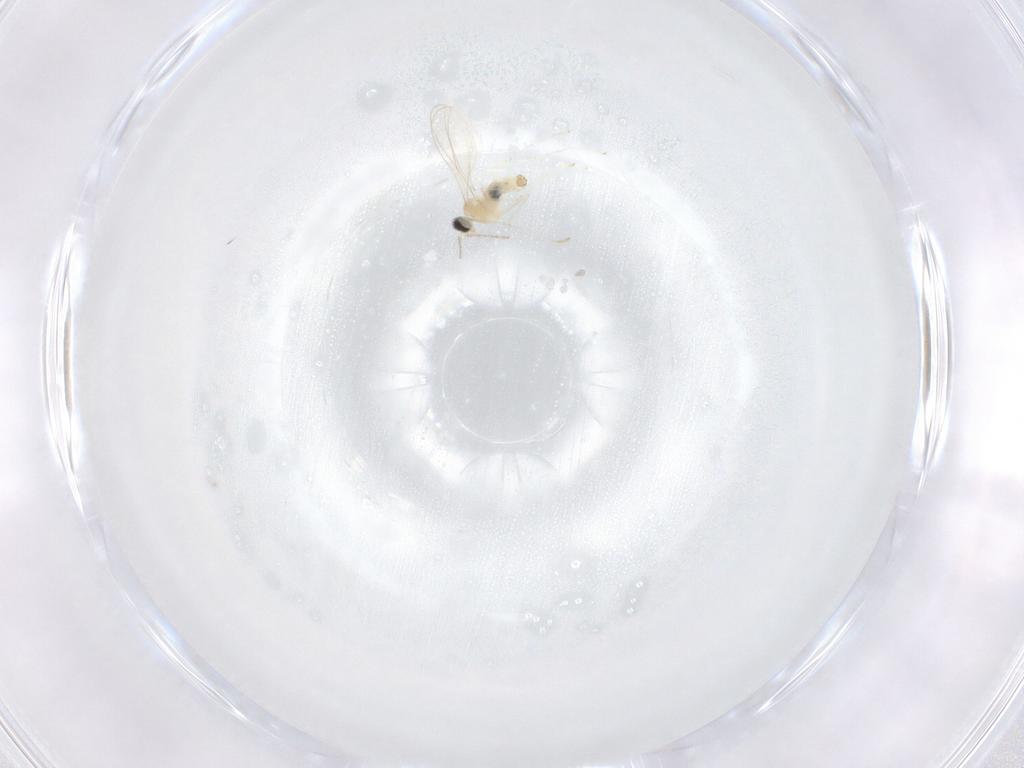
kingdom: Animalia
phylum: Arthropoda
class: Insecta
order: Diptera
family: Cecidomyiidae
